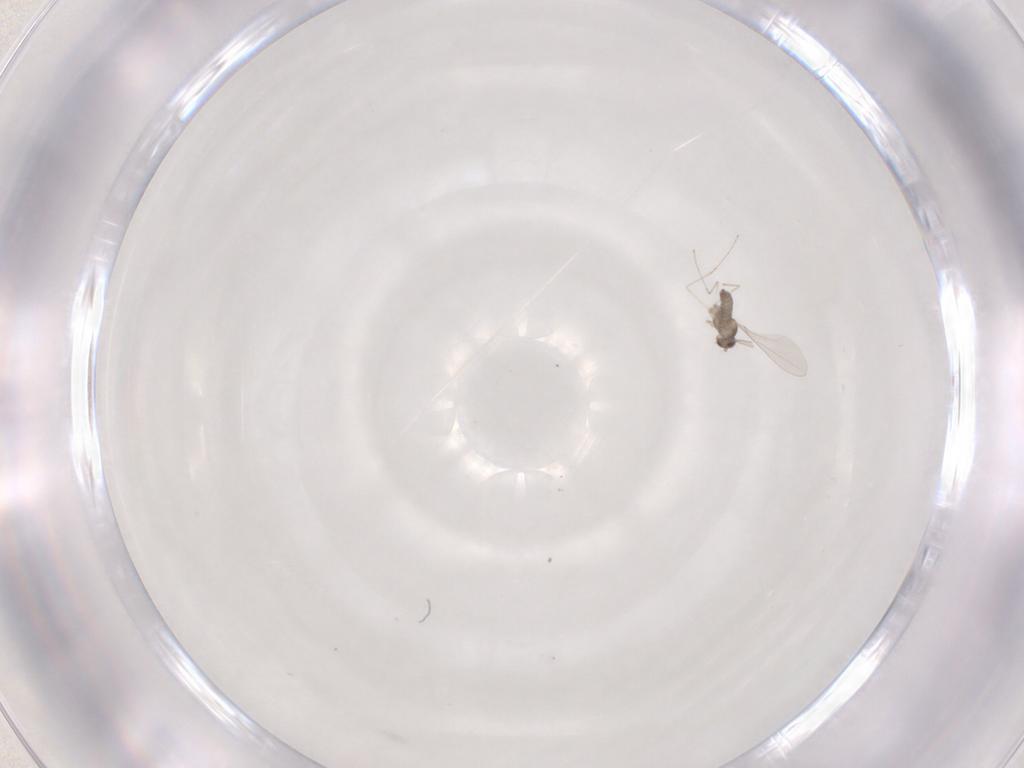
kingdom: Animalia
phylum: Arthropoda
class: Insecta
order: Diptera
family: Cecidomyiidae
